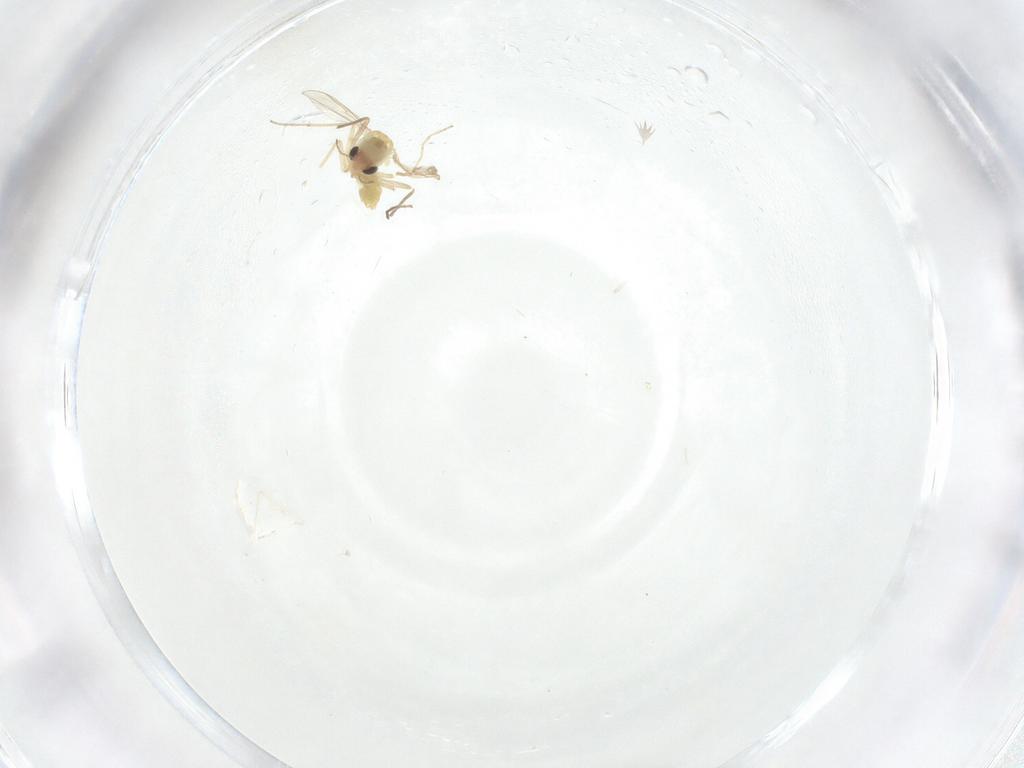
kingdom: Animalia
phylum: Arthropoda
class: Insecta
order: Diptera
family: Chironomidae
